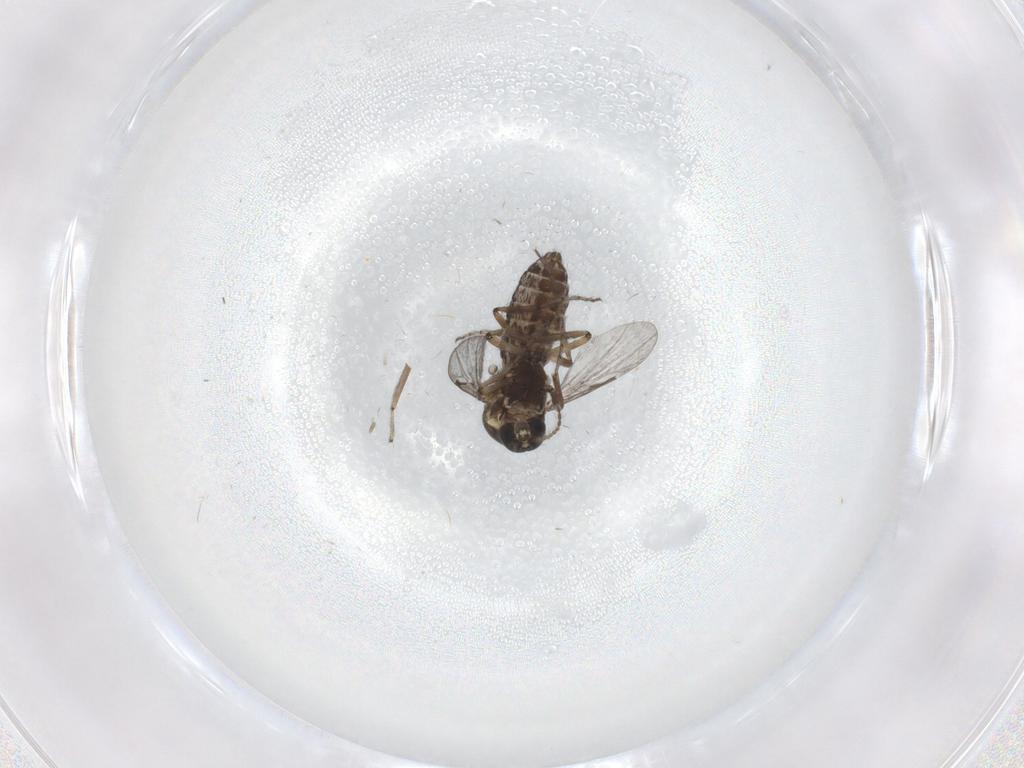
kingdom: Animalia
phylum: Arthropoda
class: Insecta
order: Diptera
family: Ceratopogonidae
